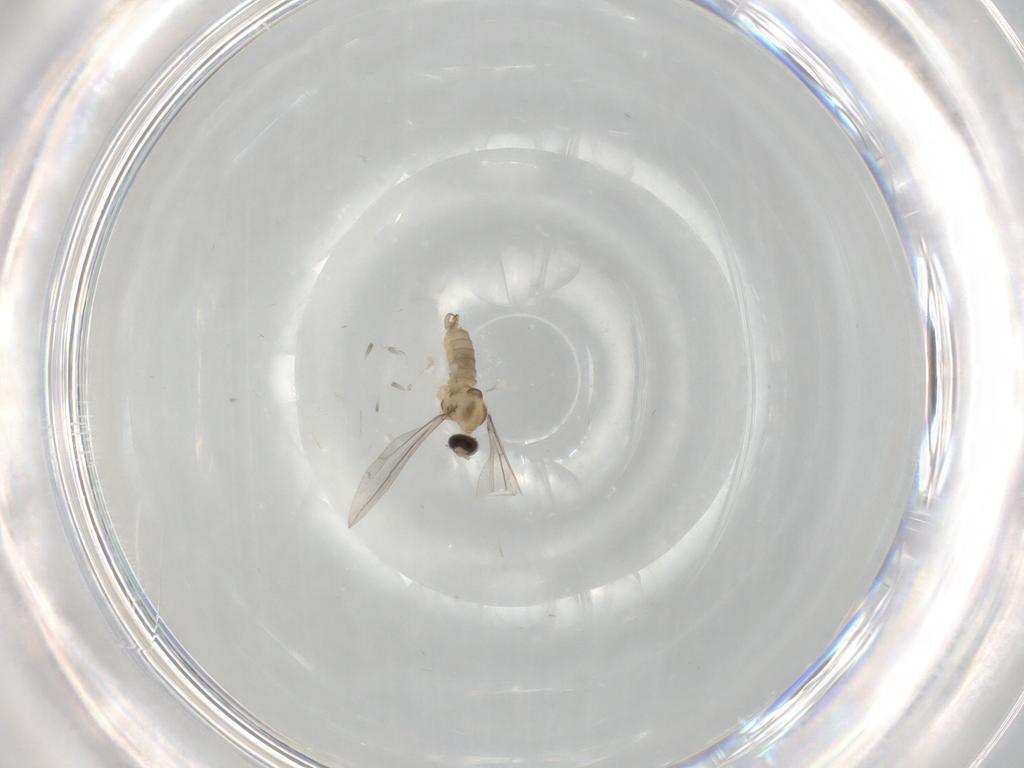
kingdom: Animalia
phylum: Arthropoda
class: Insecta
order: Diptera
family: Cecidomyiidae
